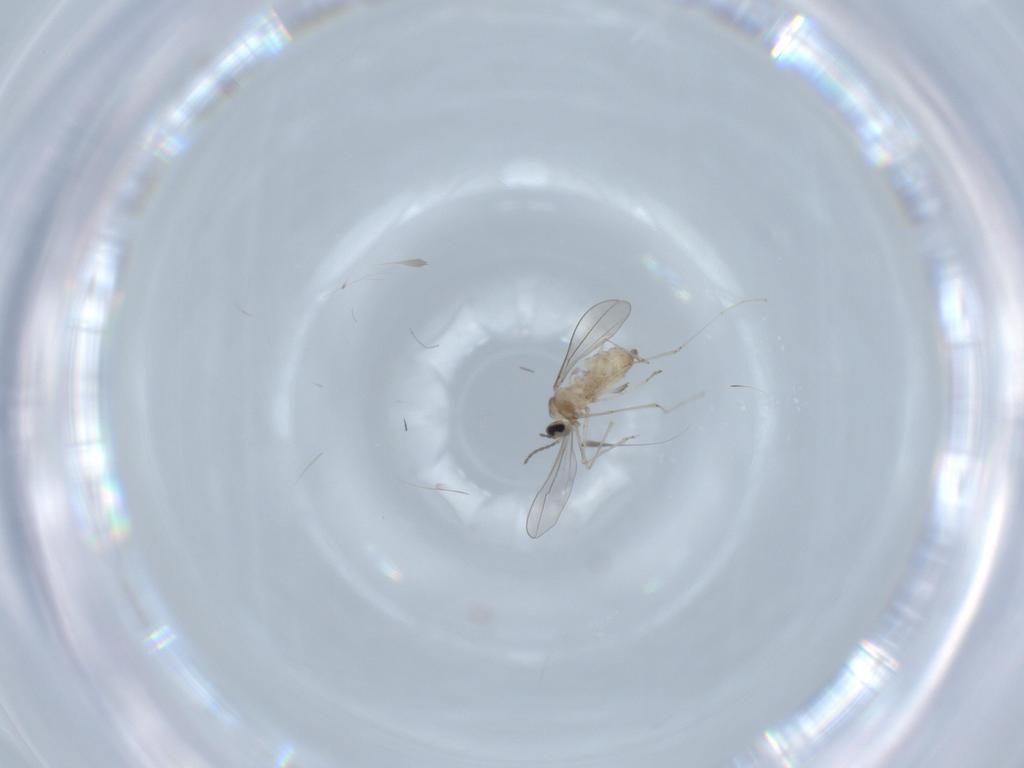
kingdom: Animalia
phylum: Arthropoda
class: Insecta
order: Diptera
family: Cecidomyiidae
